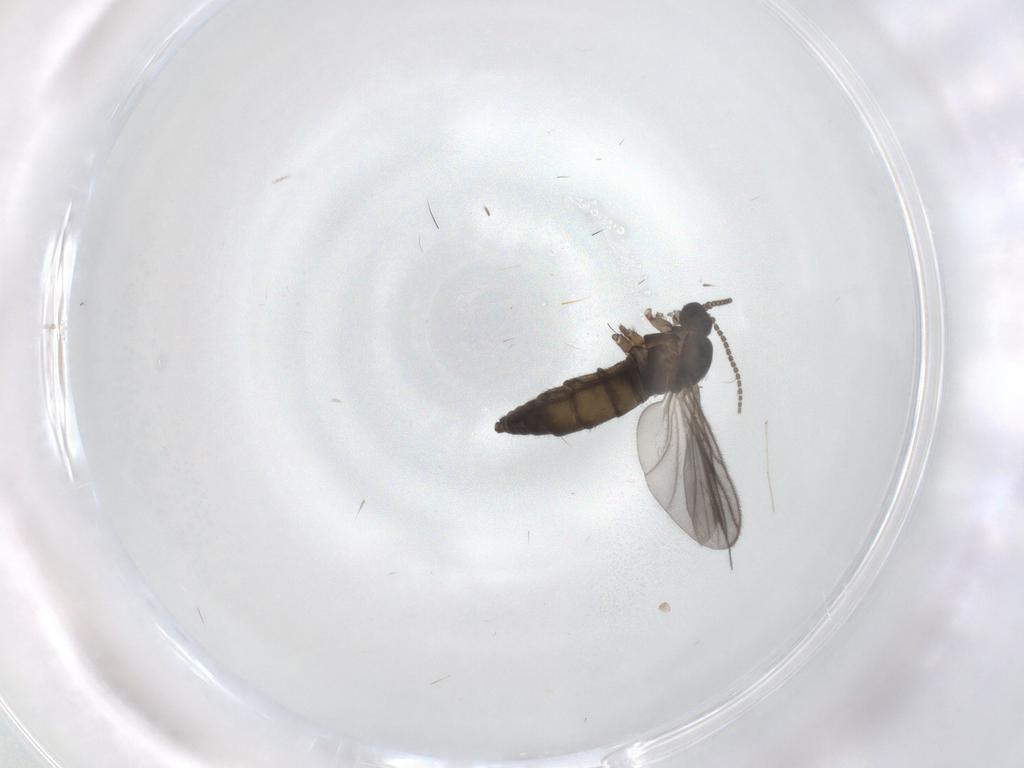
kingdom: Animalia
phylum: Arthropoda
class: Insecta
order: Diptera
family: Sciaridae
